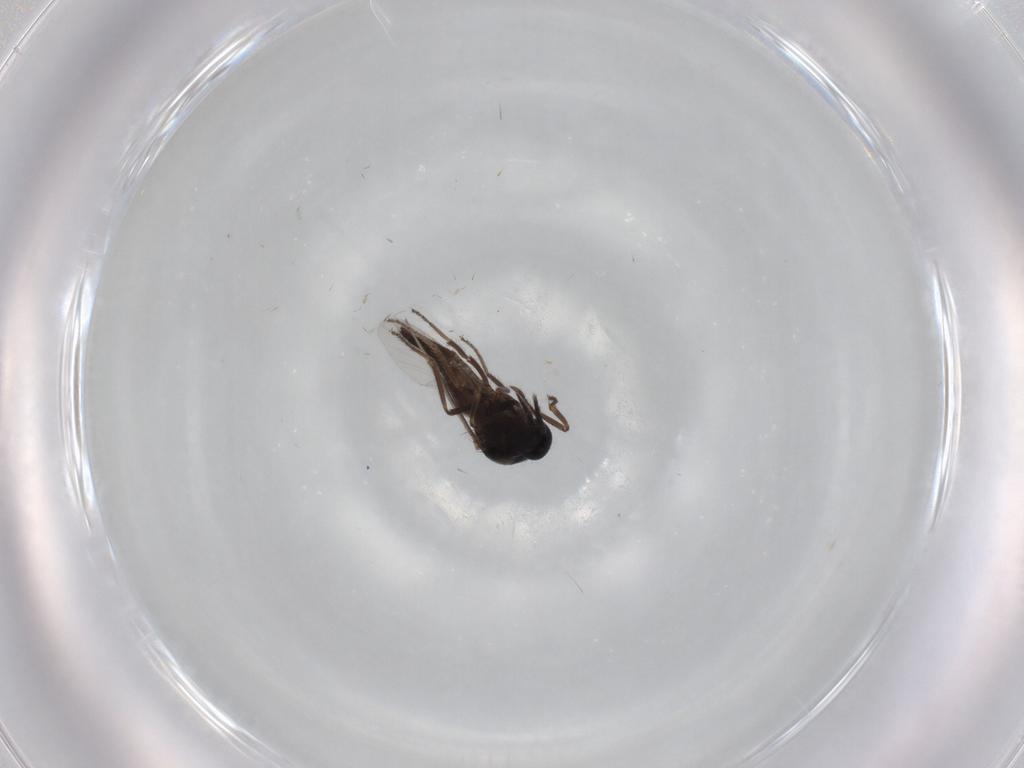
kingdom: Animalia
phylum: Arthropoda
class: Insecta
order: Diptera
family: Ceratopogonidae
